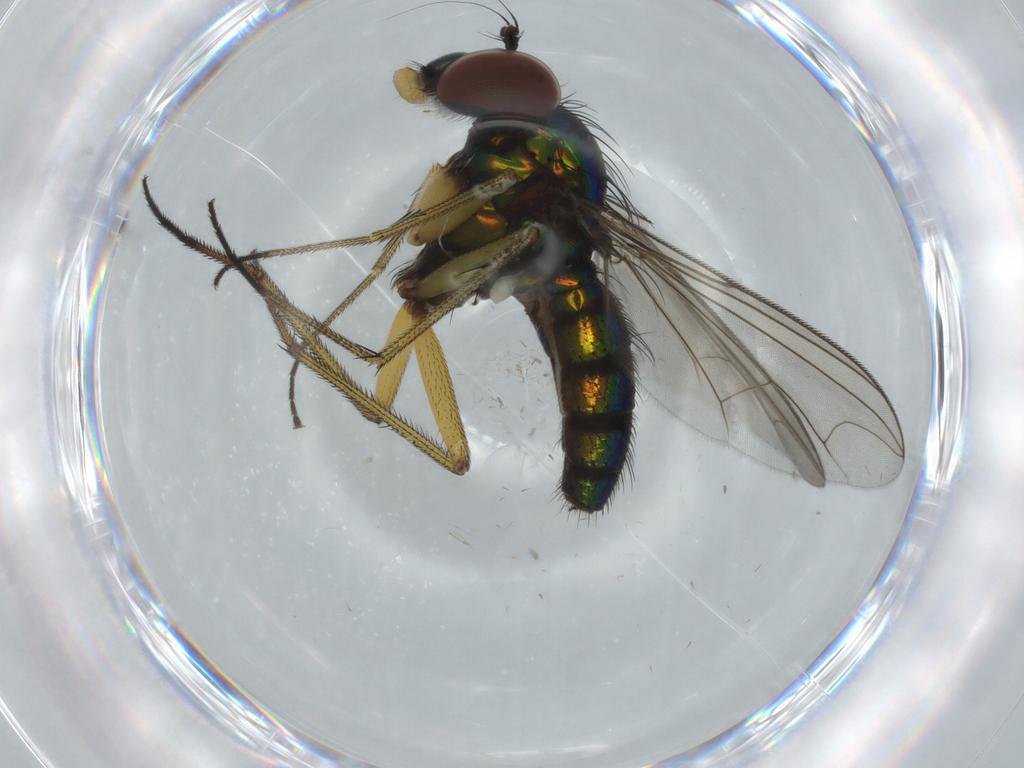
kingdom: Animalia
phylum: Arthropoda
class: Insecta
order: Diptera
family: Dolichopodidae
